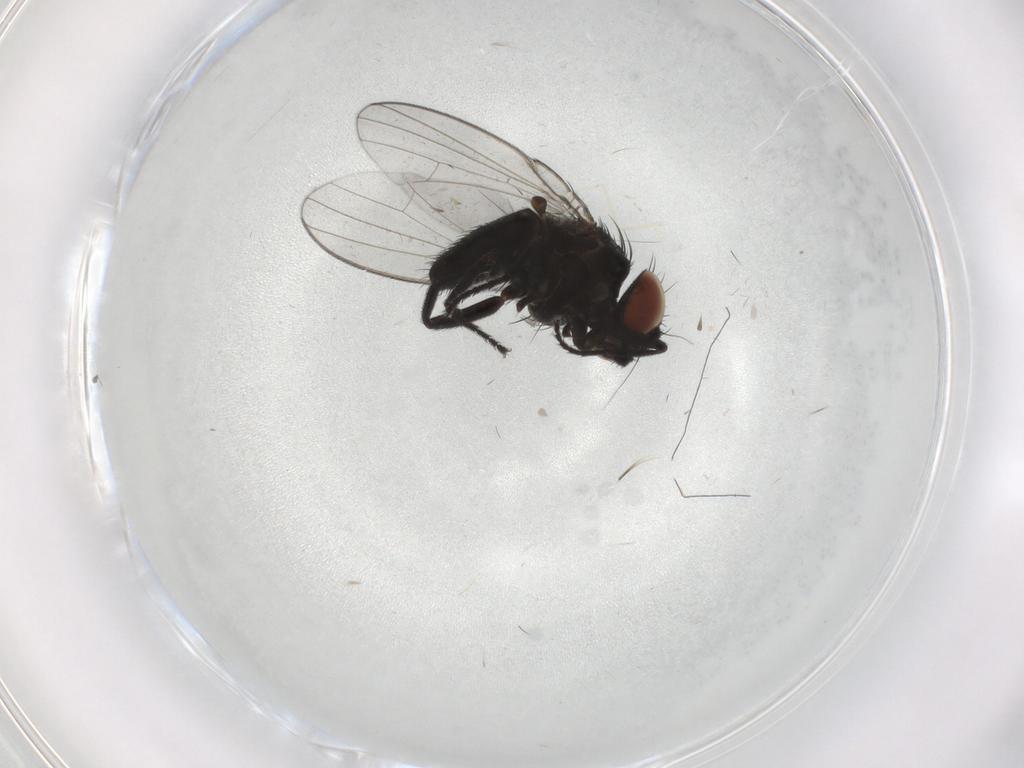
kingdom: Animalia
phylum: Arthropoda
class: Insecta
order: Diptera
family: Milichiidae
